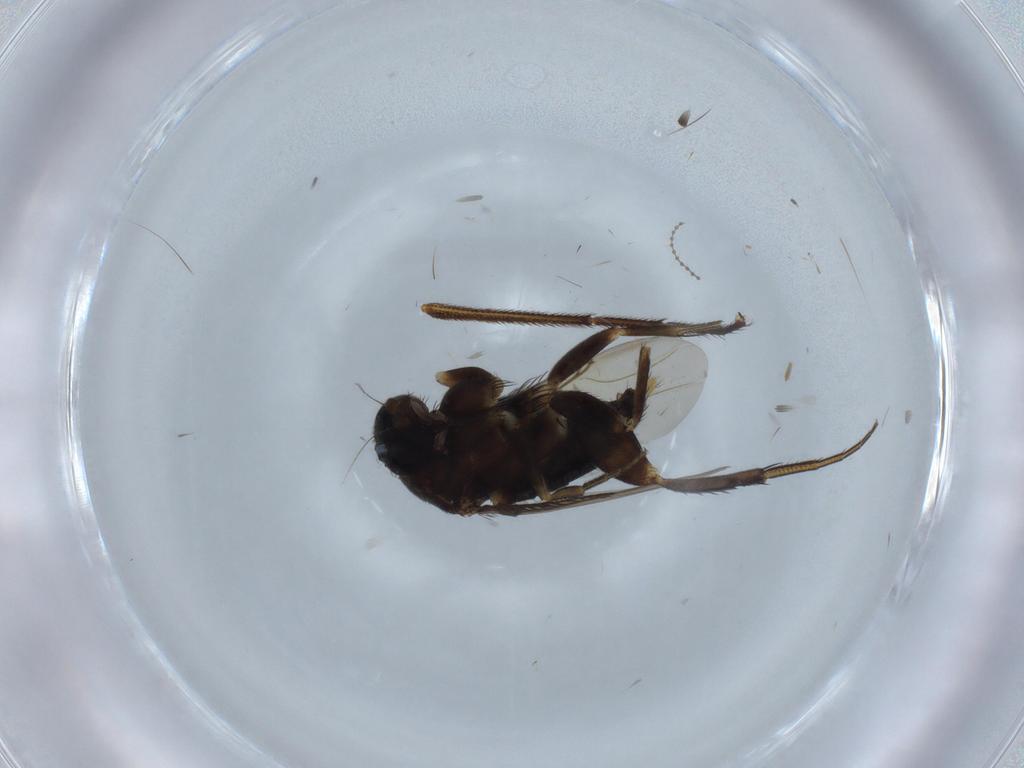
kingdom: Animalia
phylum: Arthropoda
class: Insecta
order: Diptera
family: Phoridae
